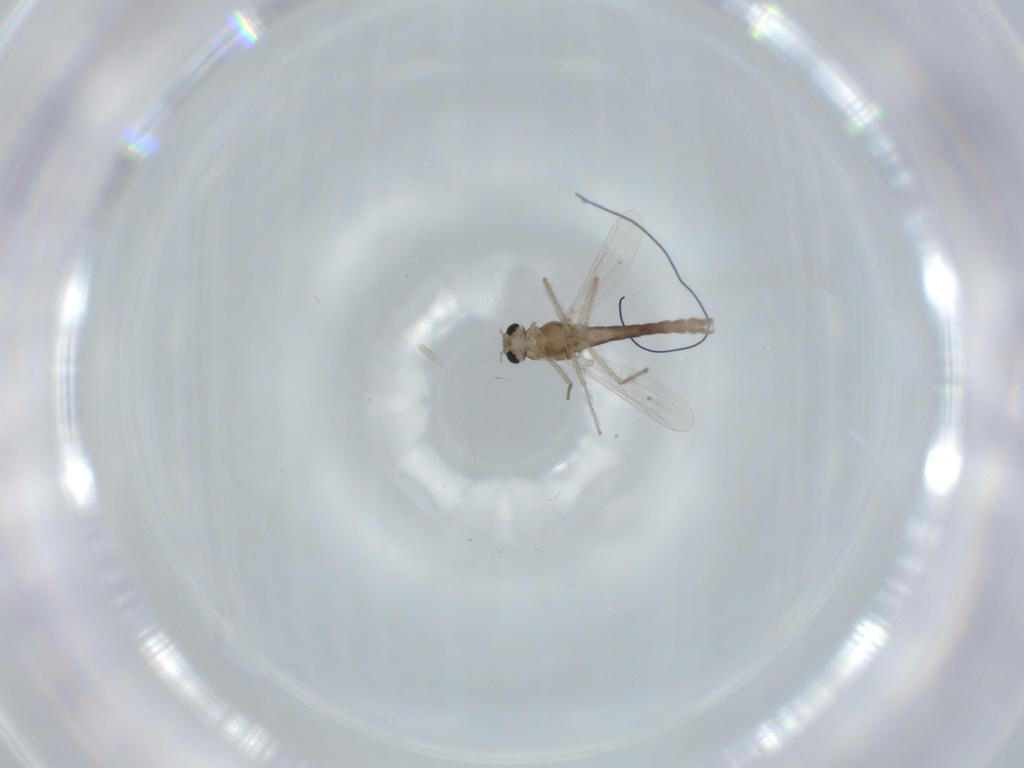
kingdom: Animalia
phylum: Arthropoda
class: Insecta
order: Diptera
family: Chironomidae
